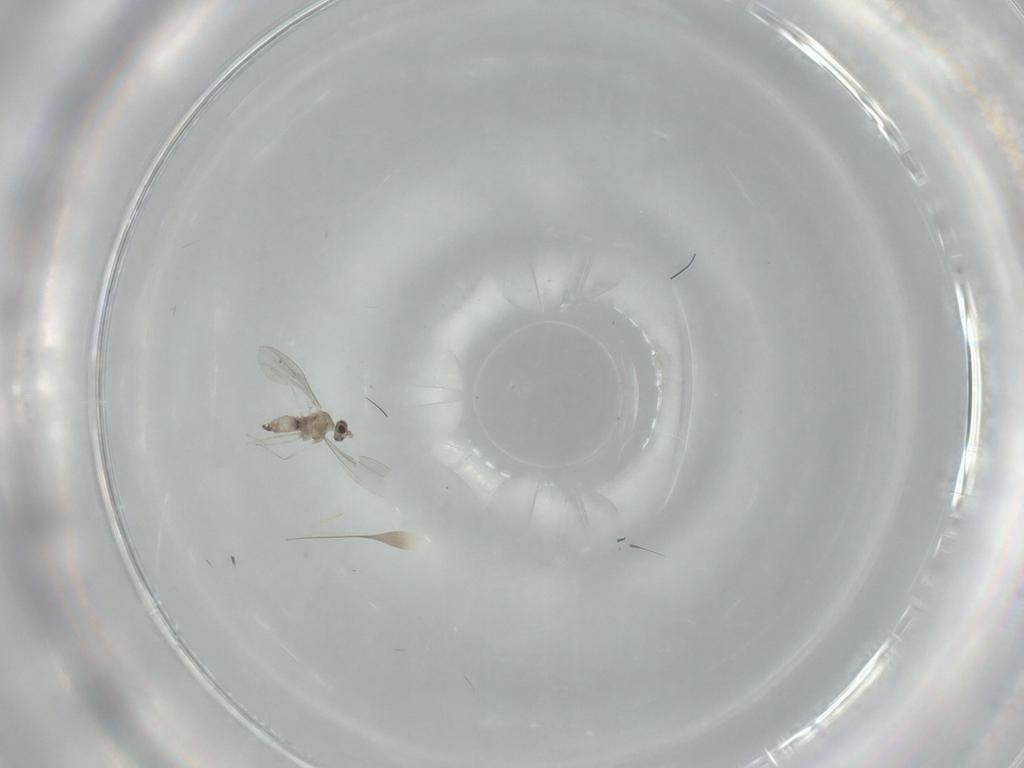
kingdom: Animalia
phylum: Arthropoda
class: Insecta
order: Diptera
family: Cecidomyiidae
